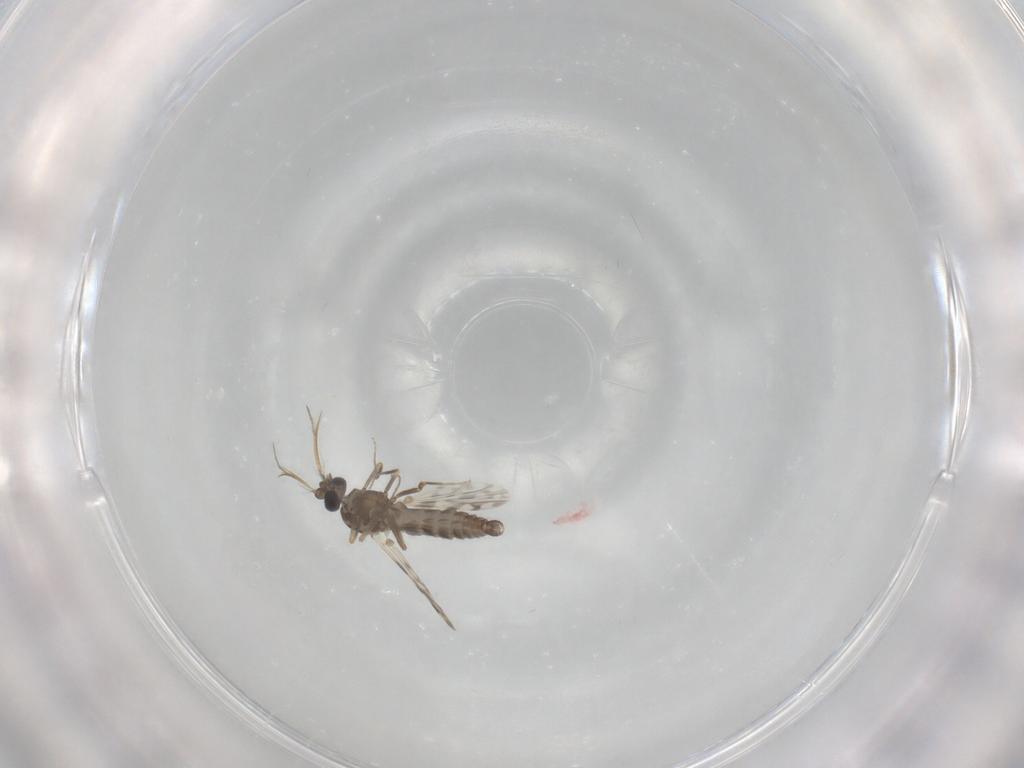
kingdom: Animalia
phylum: Arthropoda
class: Insecta
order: Diptera
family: Ceratopogonidae
